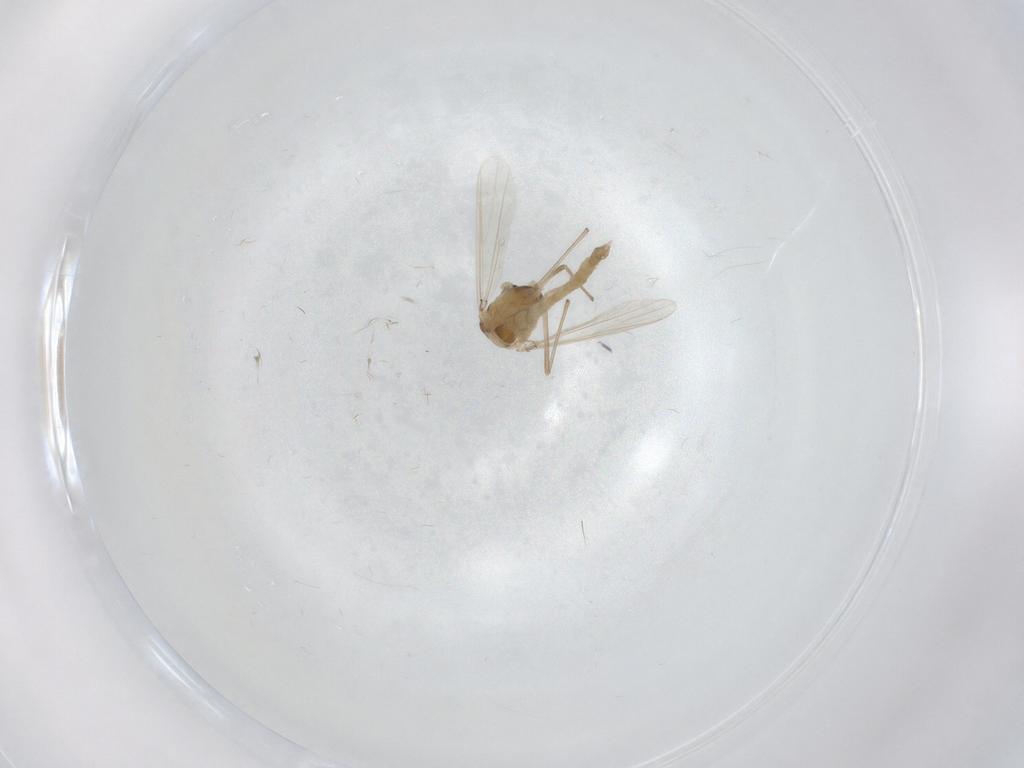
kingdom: Animalia
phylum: Arthropoda
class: Insecta
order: Diptera
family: Chironomidae
